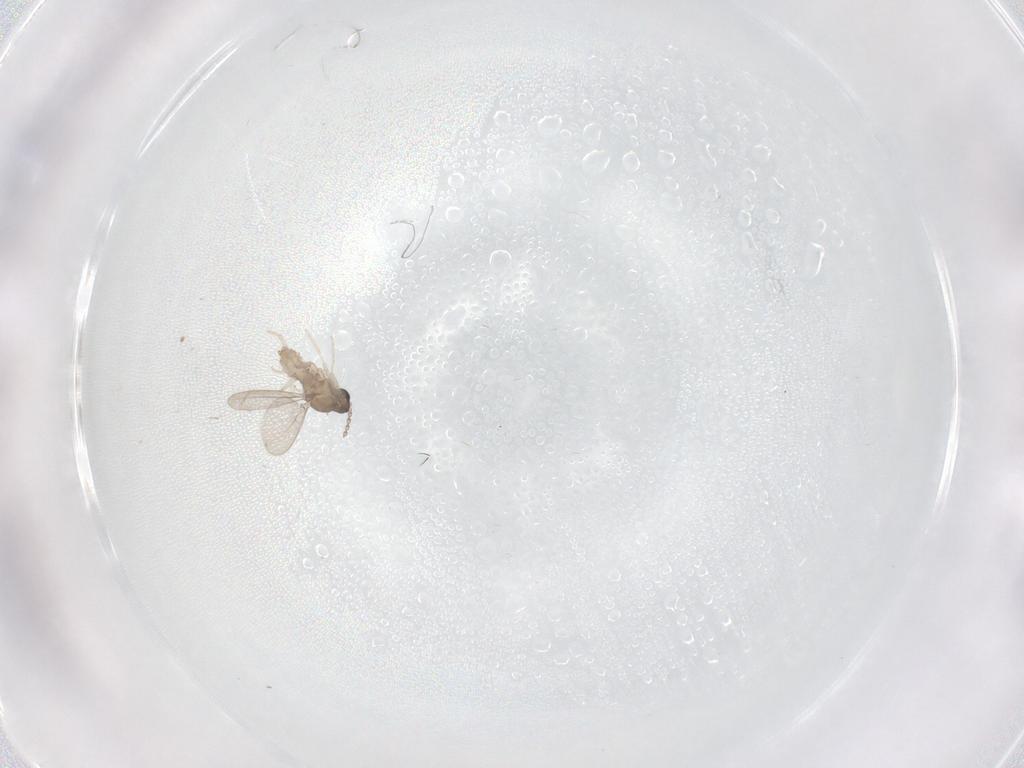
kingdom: Animalia
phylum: Arthropoda
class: Insecta
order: Diptera
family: Cecidomyiidae
